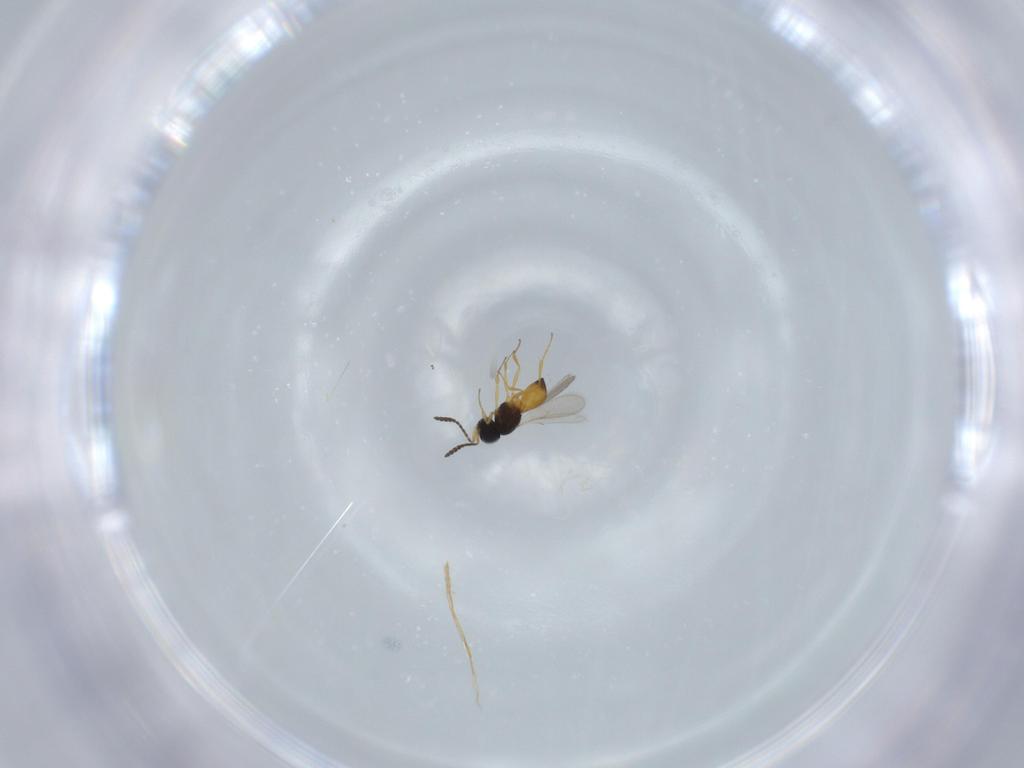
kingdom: Animalia
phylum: Arthropoda
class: Insecta
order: Hymenoptera
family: Scelionidae
